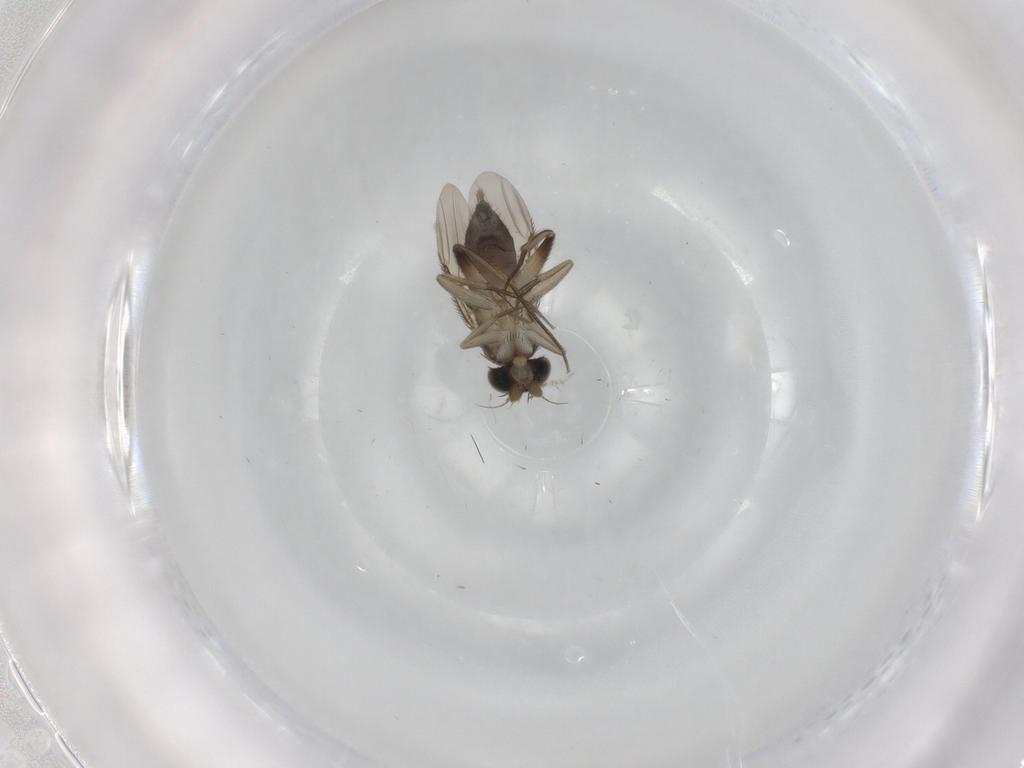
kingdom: Animalia
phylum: Arthropoda
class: Insecta
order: Diptera
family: Phoridae
